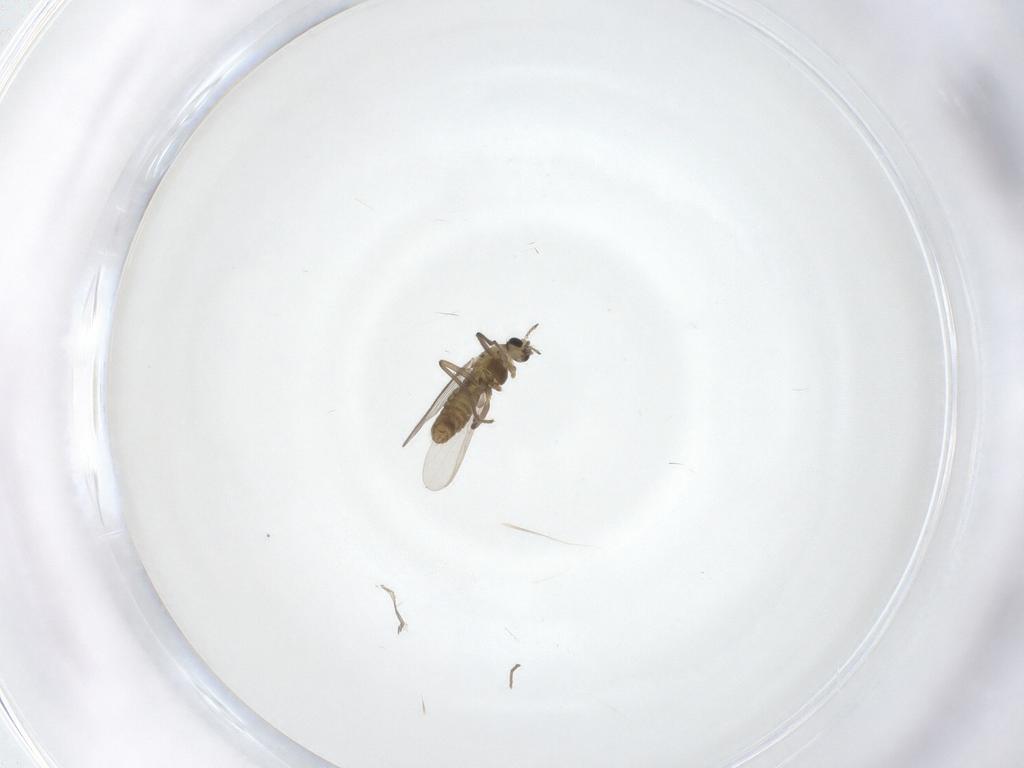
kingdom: Animalia
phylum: Arthropoda
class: Insecta
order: Diptera
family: Chironomidae
